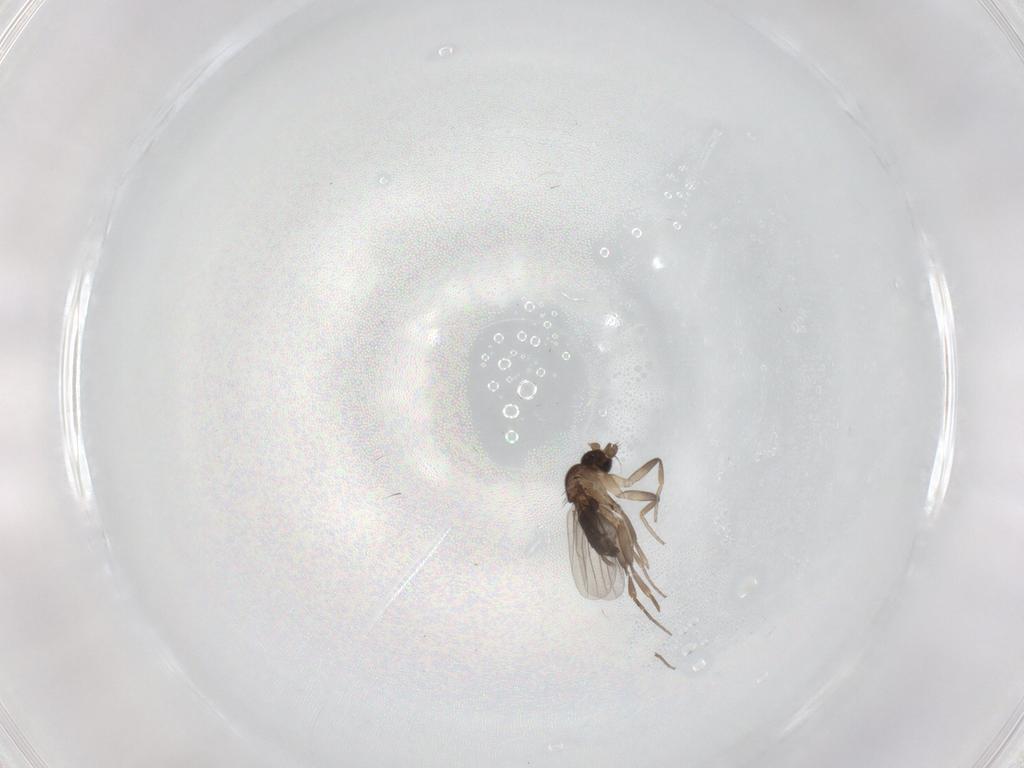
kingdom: Animalia
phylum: Arthropoda
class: Insecta
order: Diptera
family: Phoridae
